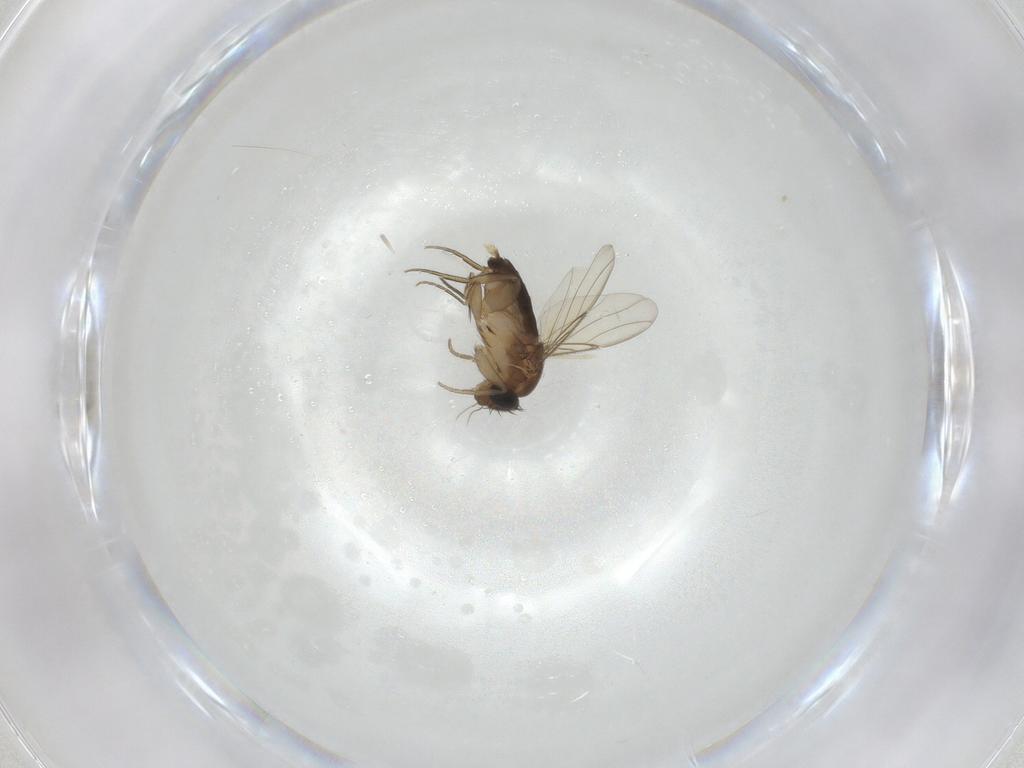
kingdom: Animalia
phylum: Arthropoda
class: Insecta
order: Diptera
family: Phoridae
